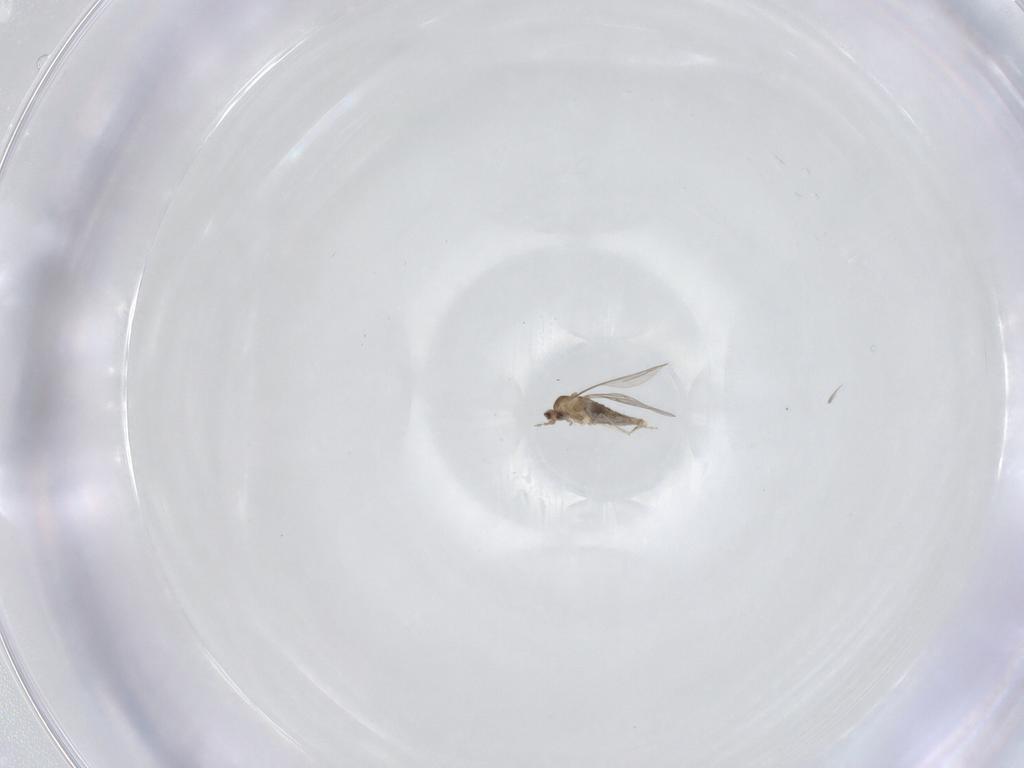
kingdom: Animalia
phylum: Arthropoda
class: Insecta
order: Diptera
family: Cecidomyiidae
